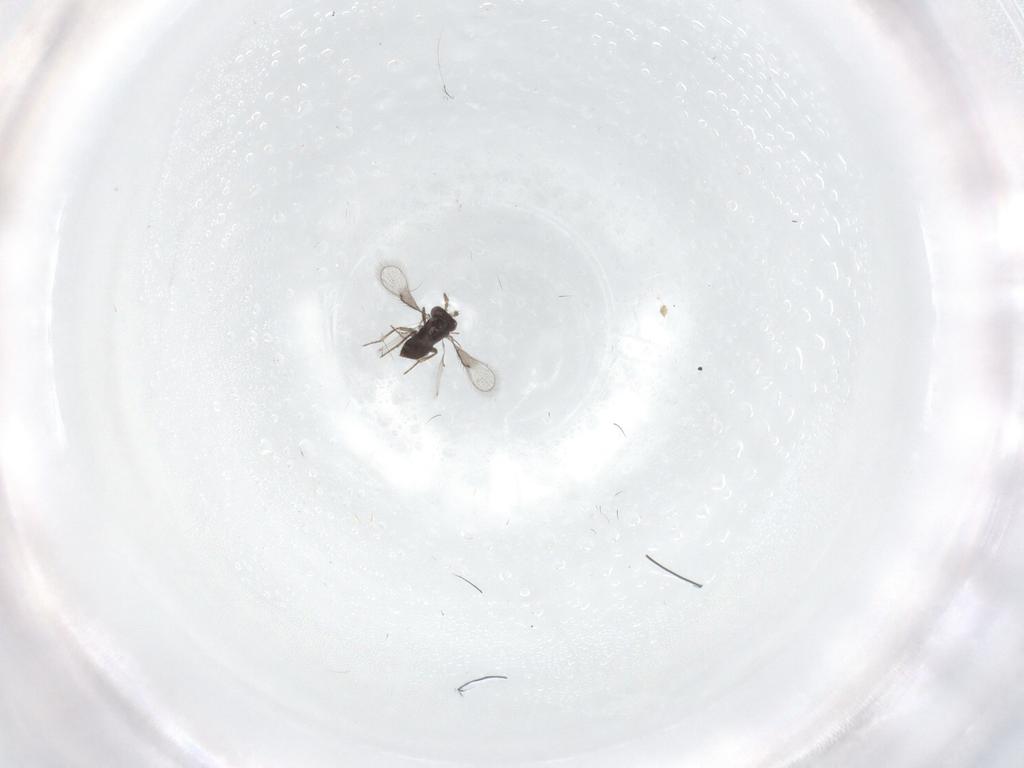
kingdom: Animalia
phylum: Arthropoda
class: Insecta
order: Hymenoptera
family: Trichogrammatidae
